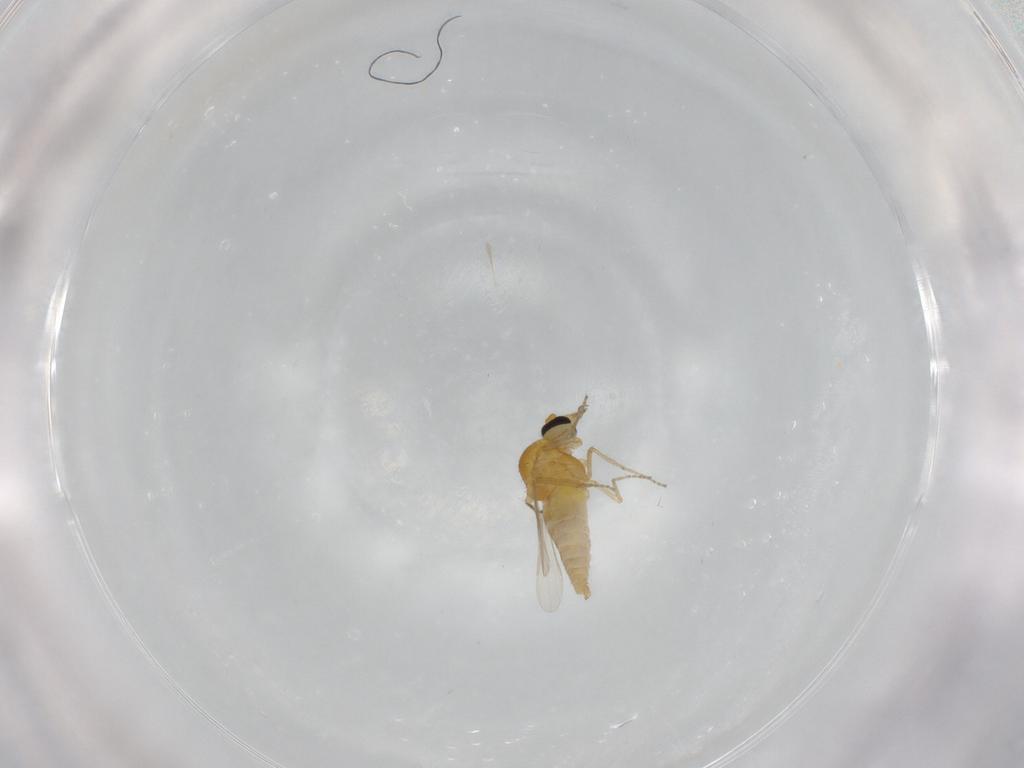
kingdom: Animalia
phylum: Arthropoda
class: Insecta
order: Diptera
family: Ceratopogonidae
